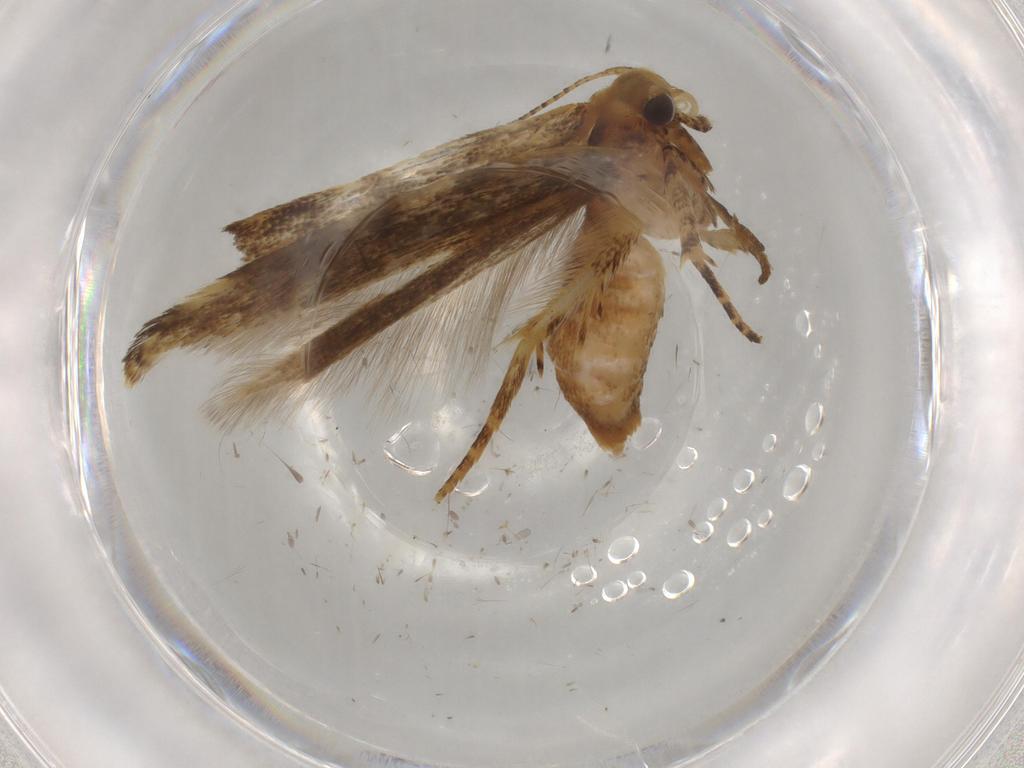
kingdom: Animalia
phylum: Arthropoda
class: Insecta
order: Lepidoptera
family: Gelechiidae
